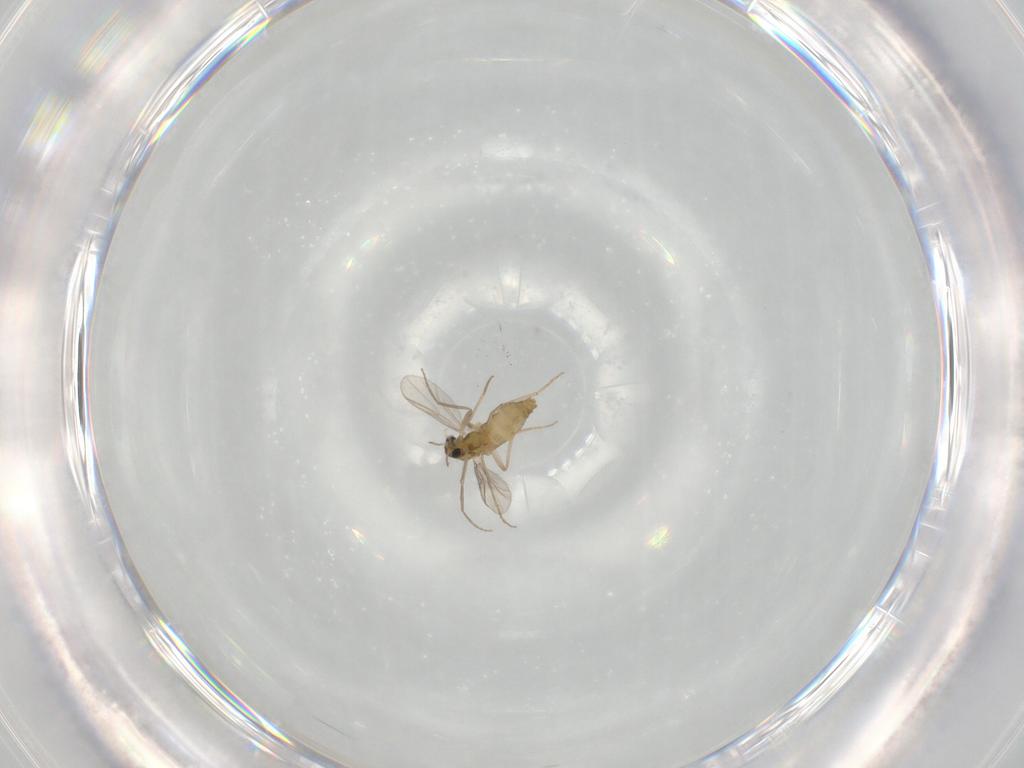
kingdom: Animalia
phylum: Arthropoda
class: Insecta
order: Diptera
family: Chironomidae
